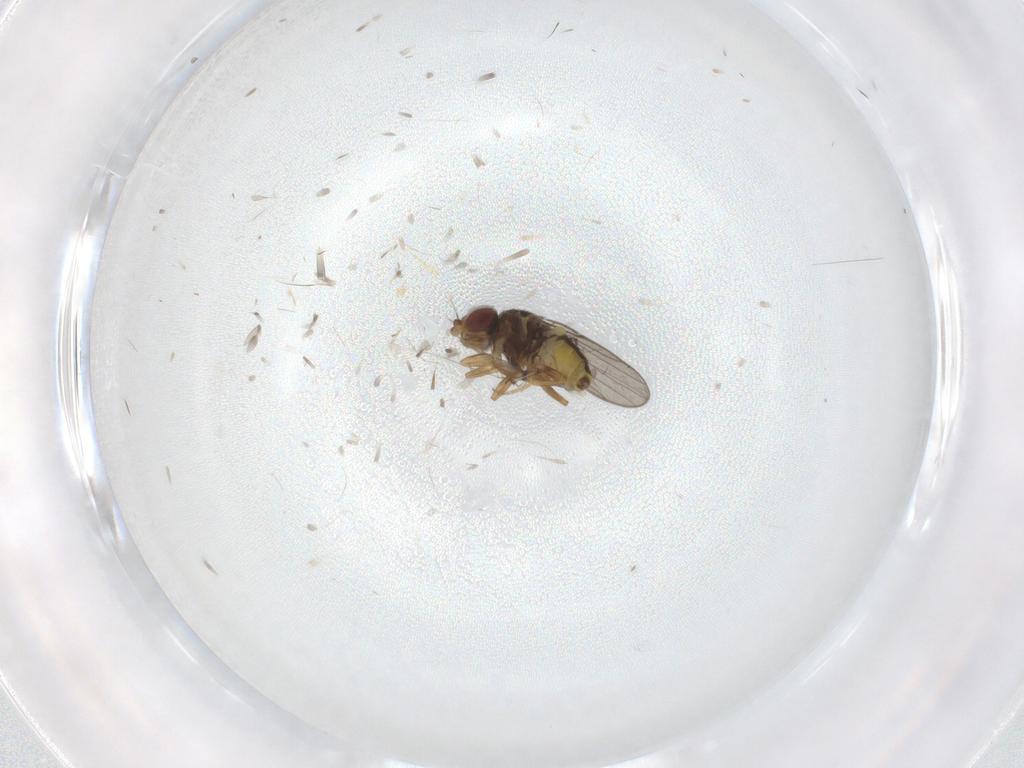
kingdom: Animalia
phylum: Arthropoda
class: Insecta
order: Diptera
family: Chloropidae
